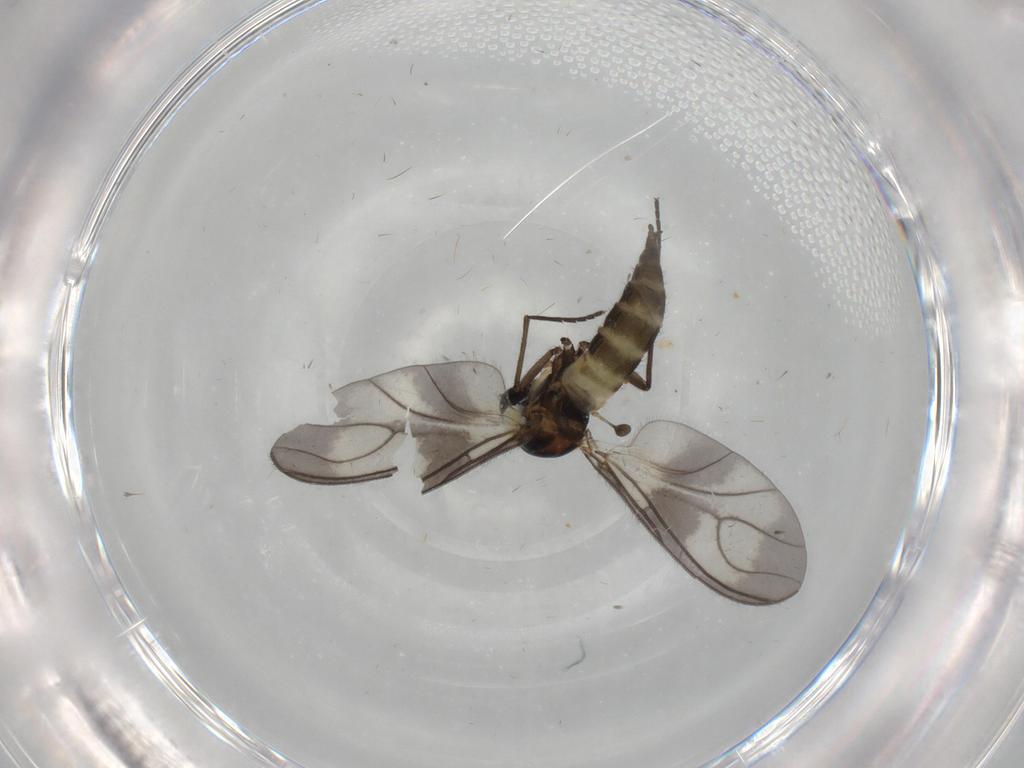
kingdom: Animalia
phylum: Arthropoda
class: Insecta
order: Diptera
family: Sciaridae
